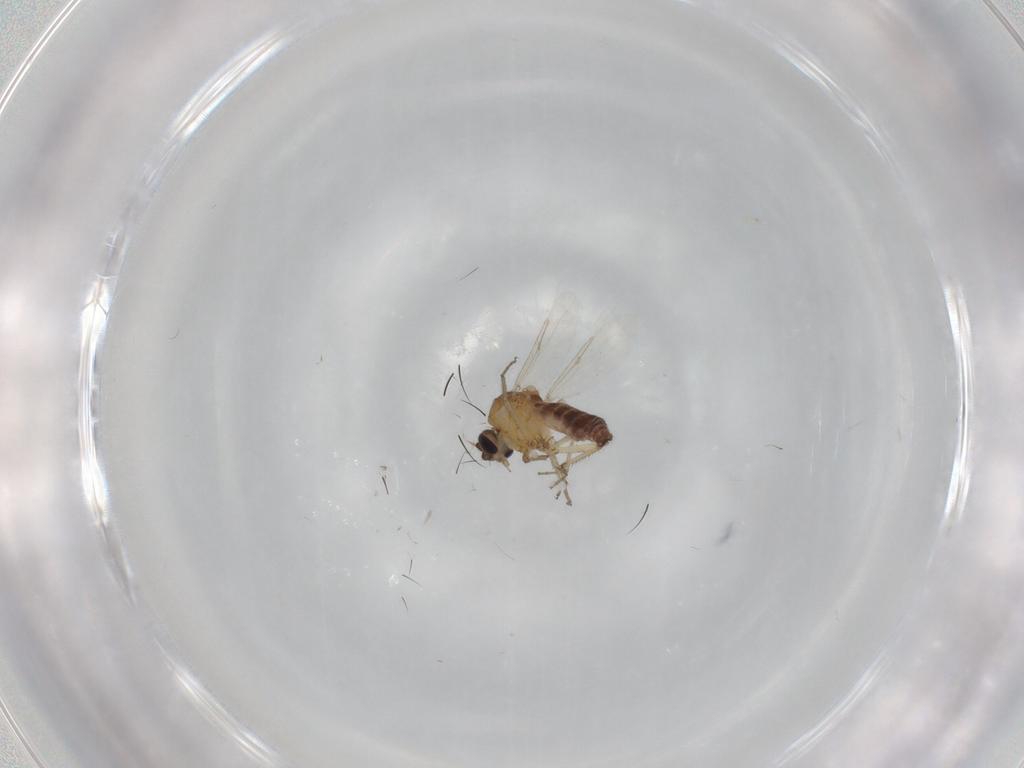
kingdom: Animalia
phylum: Arthropoda
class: Insecta
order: Diptera
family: Ceratopogonidae
